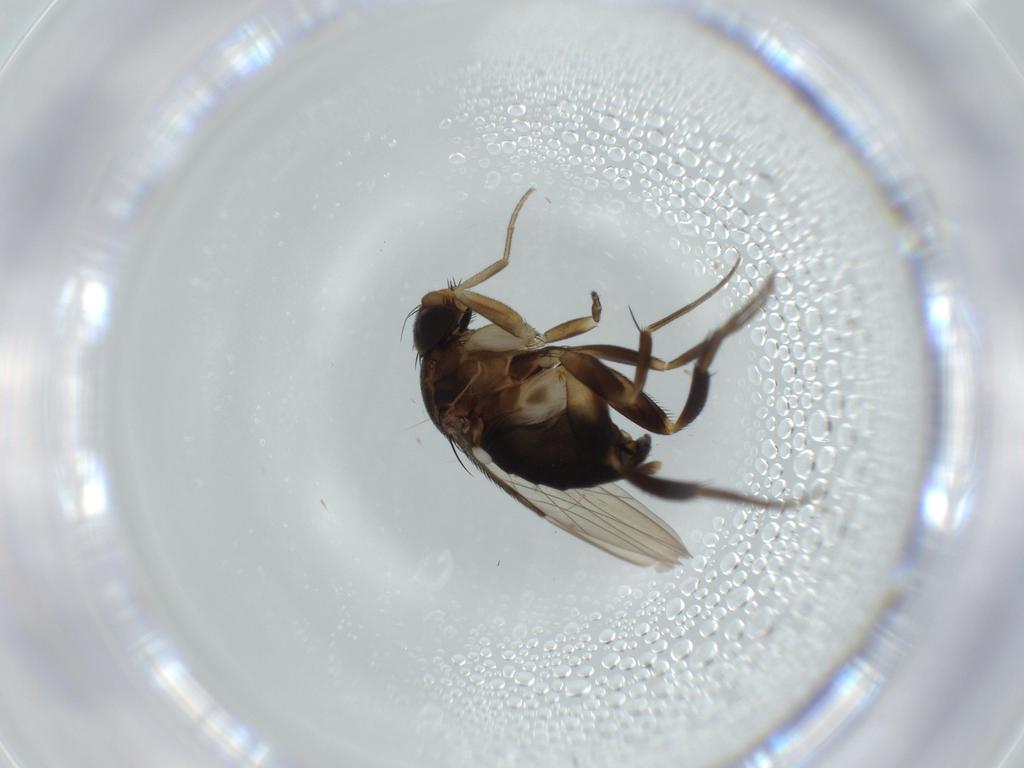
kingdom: Animalia
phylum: Arthropoda
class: Insecta
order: Diptera
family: Phoridae
